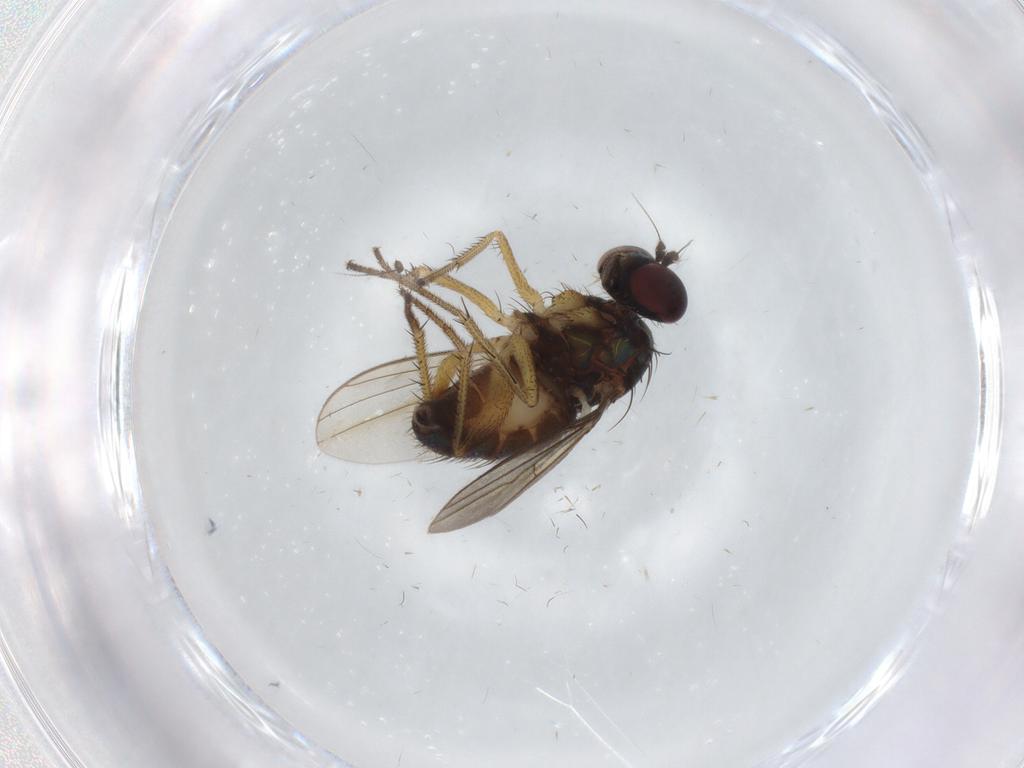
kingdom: Animalia
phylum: Arthropoda
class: Insecta
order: Diptera
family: Dolichopodidae
